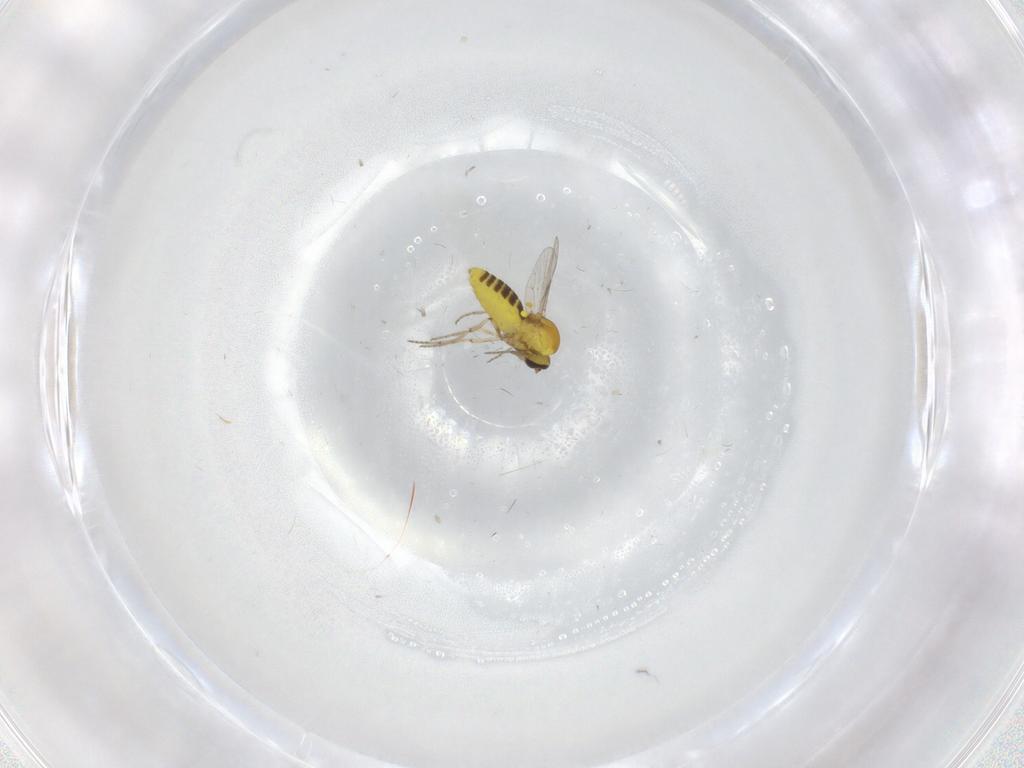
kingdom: Animalia
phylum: Arthropoda
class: Insecta
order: Diptera
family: Ceratopogonidae
